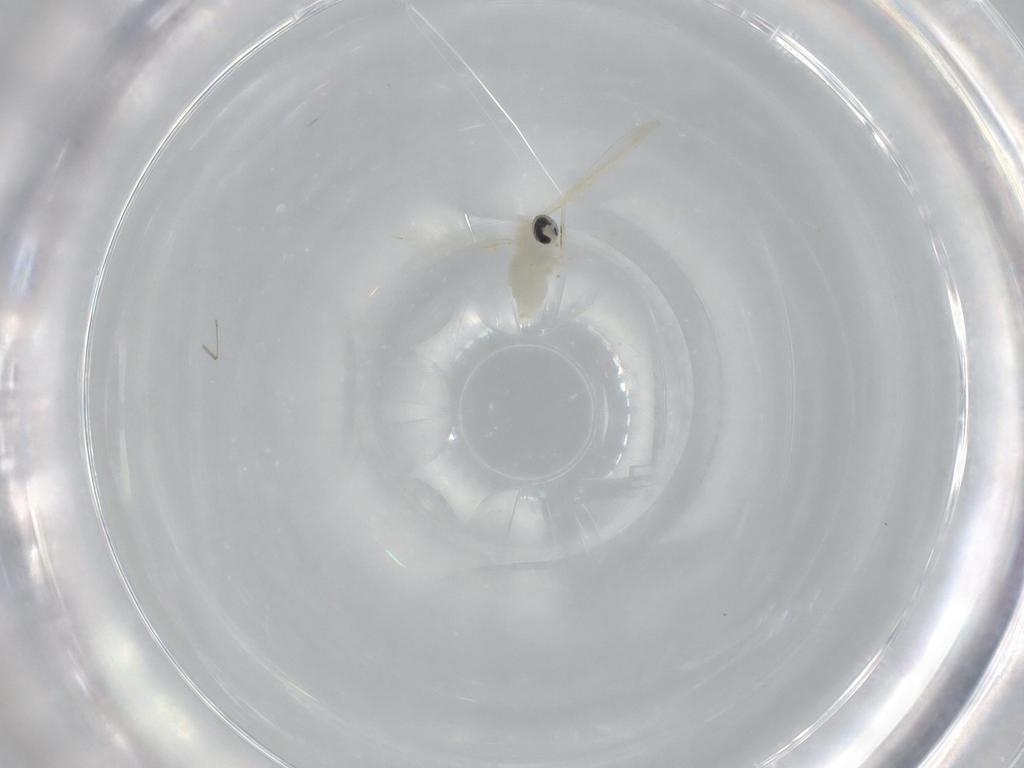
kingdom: Animalia
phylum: Arthropoda
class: Insecta
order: Diptera
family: Cecidomyiidae
